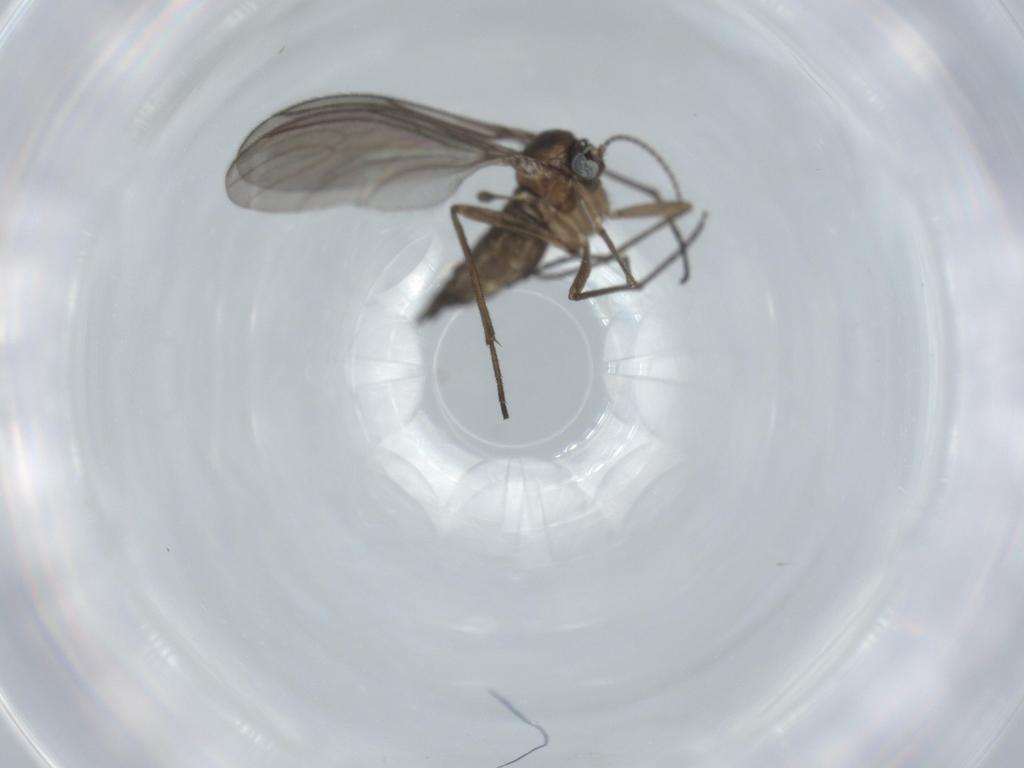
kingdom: Animalia
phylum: Arthropoda
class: Insecta
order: Diptera
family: Sciaridae
